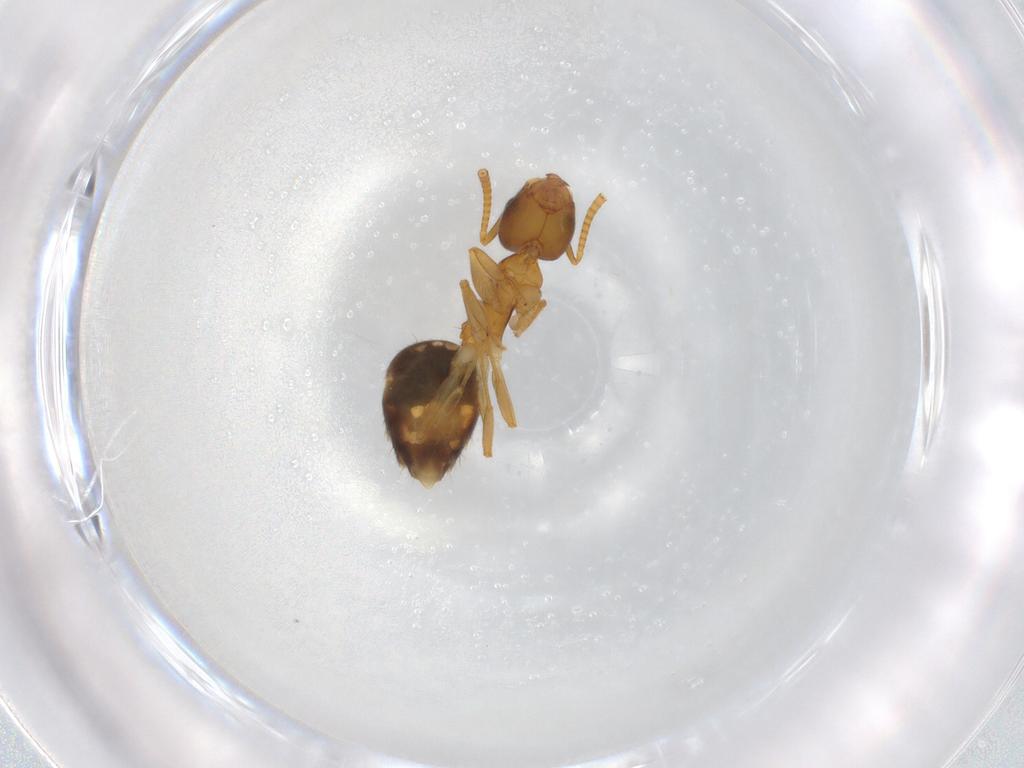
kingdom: Animalia
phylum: Arthropoda
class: Insecta
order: Hymenoptera
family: Formicidae
